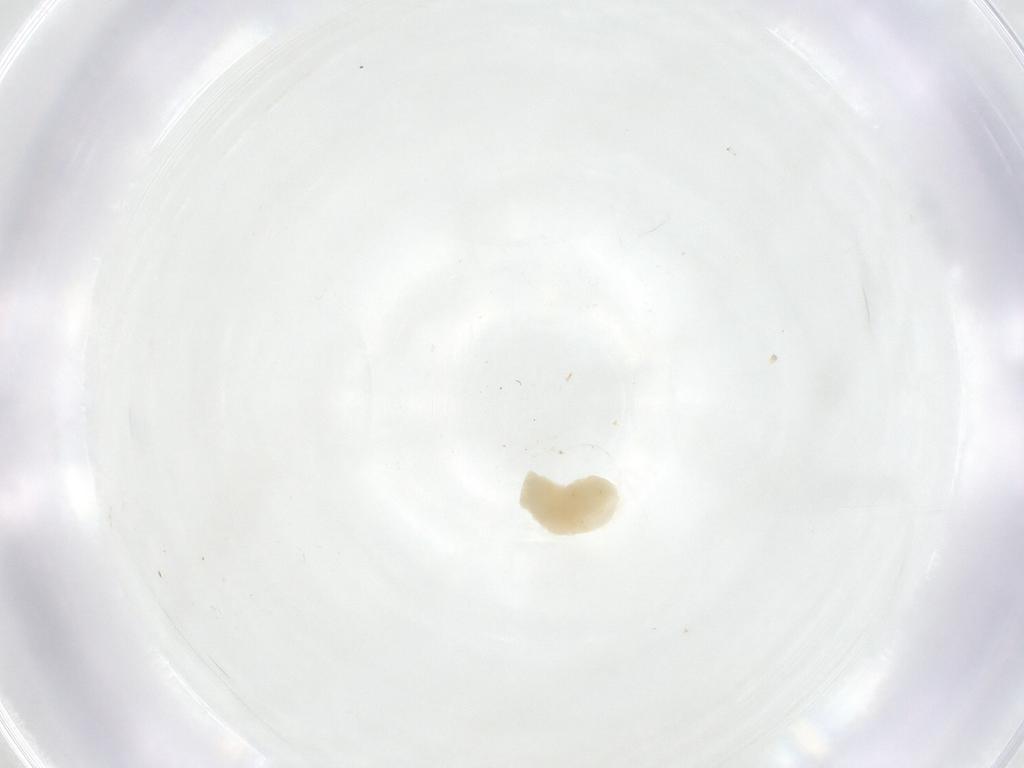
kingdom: Animalia
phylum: Arthropoda
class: Insecta
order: Diptera
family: Fergusoninidae
